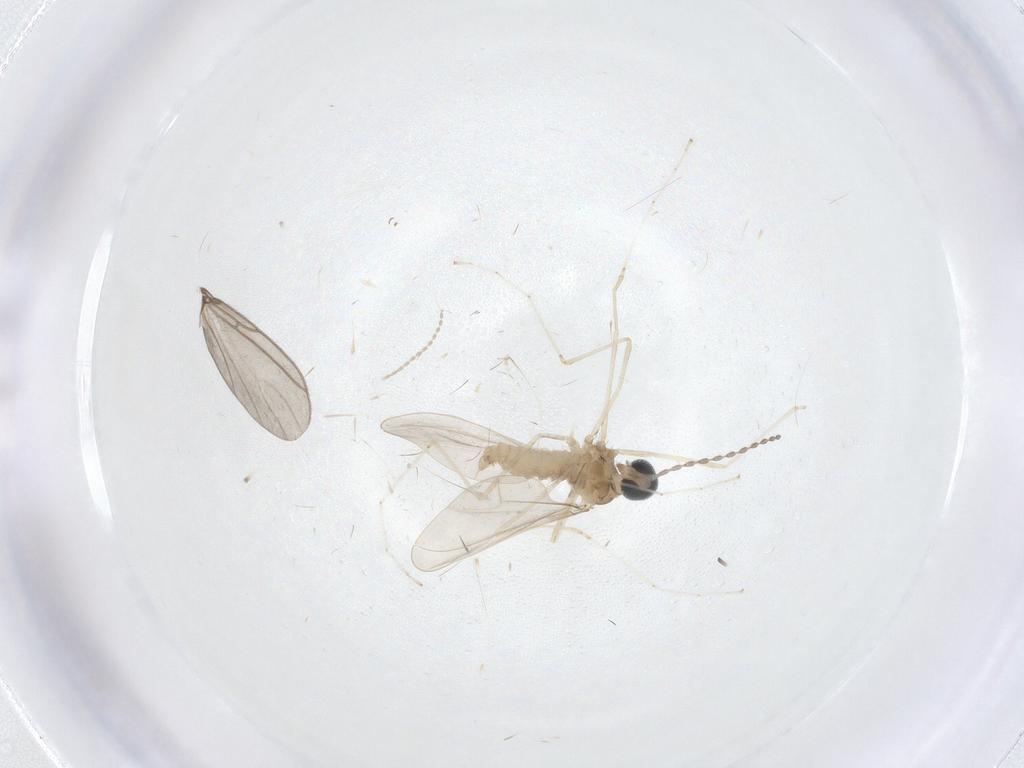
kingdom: Animalia
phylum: Arthropoda
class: Insecta
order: Diptera
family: Cecidomyiidae
